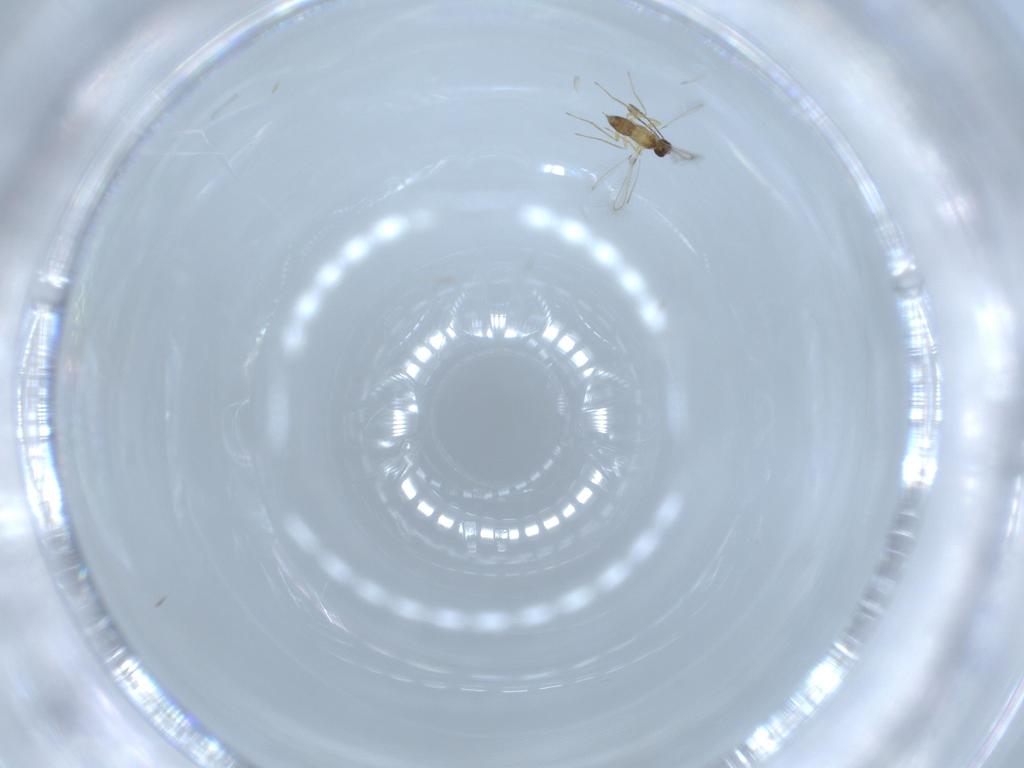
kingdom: Animalia
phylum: Arthropoda
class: Insecta
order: Hymenoptera
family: Mymaridae
